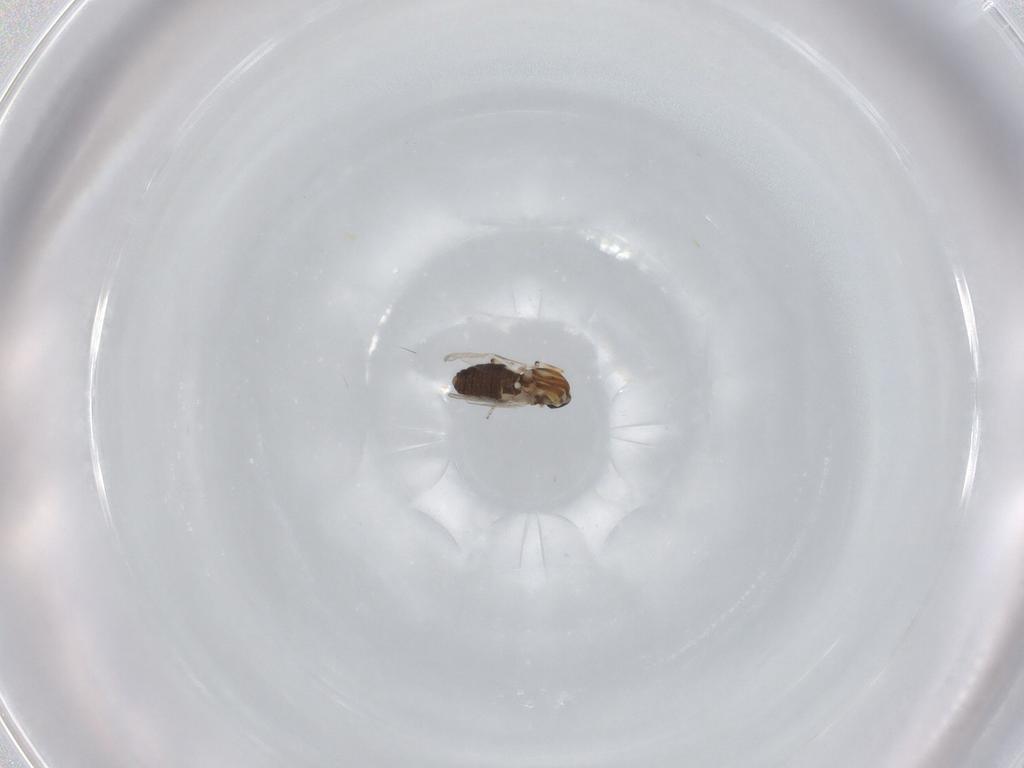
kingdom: Animalia
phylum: Arthropoda
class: Insecta
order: Diptera
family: Ceratopogonidae
